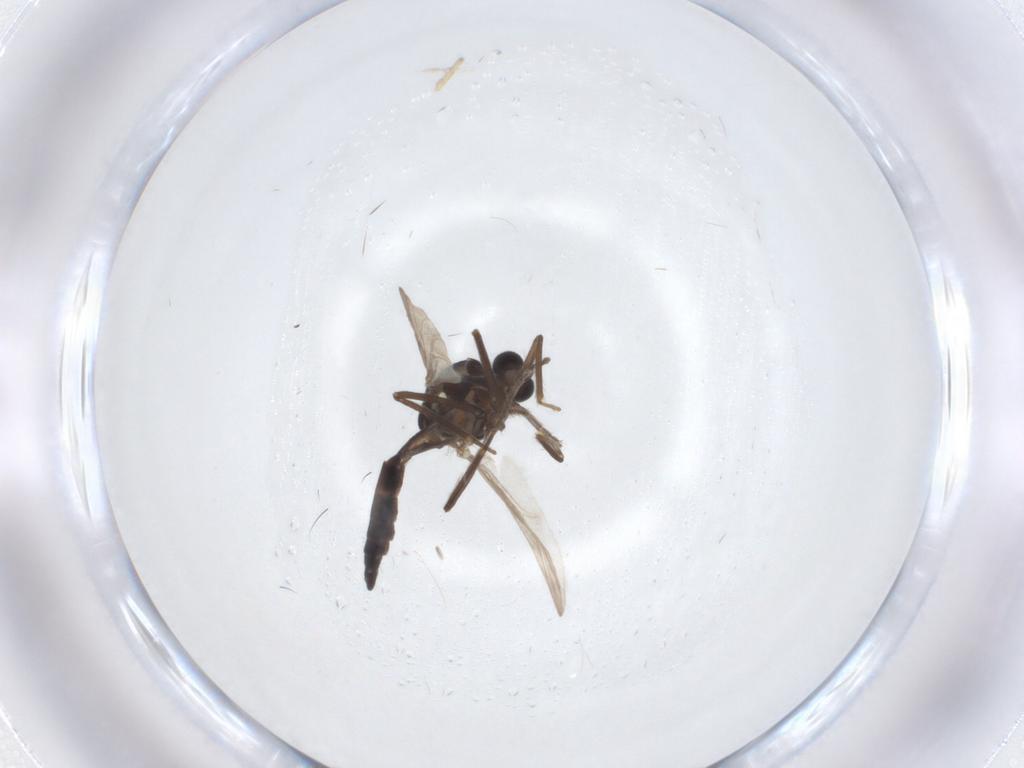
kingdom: Animalia
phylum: Arthropoda
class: Insecta
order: Diptera
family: Ceratopogonidae
